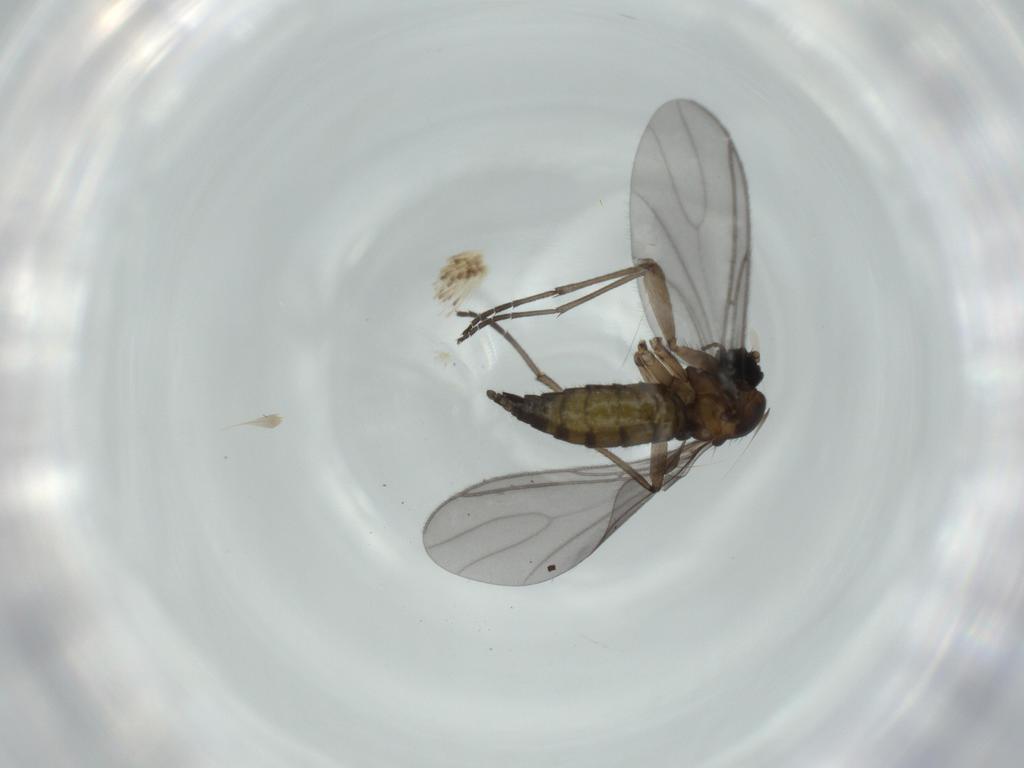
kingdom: Animalia
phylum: Arthropoda
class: Insecta
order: Diptera
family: Sciaridae
